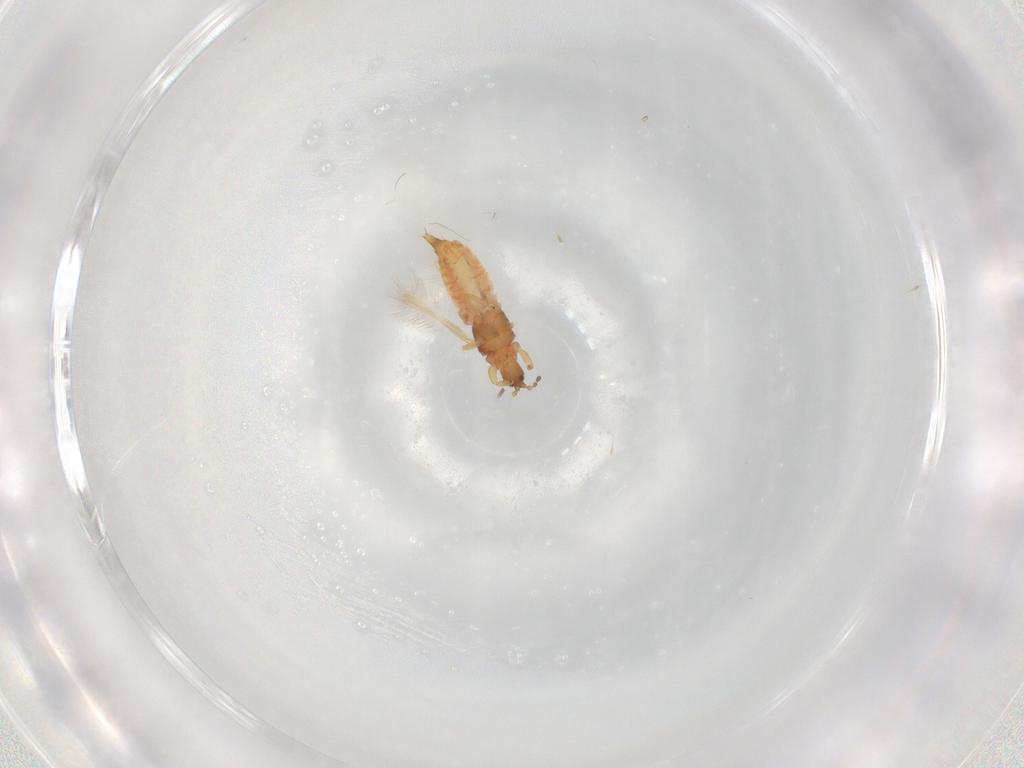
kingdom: Animalia
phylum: Arthropoda
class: Insecta
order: Thysanoptera
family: Phlaeothripidae
